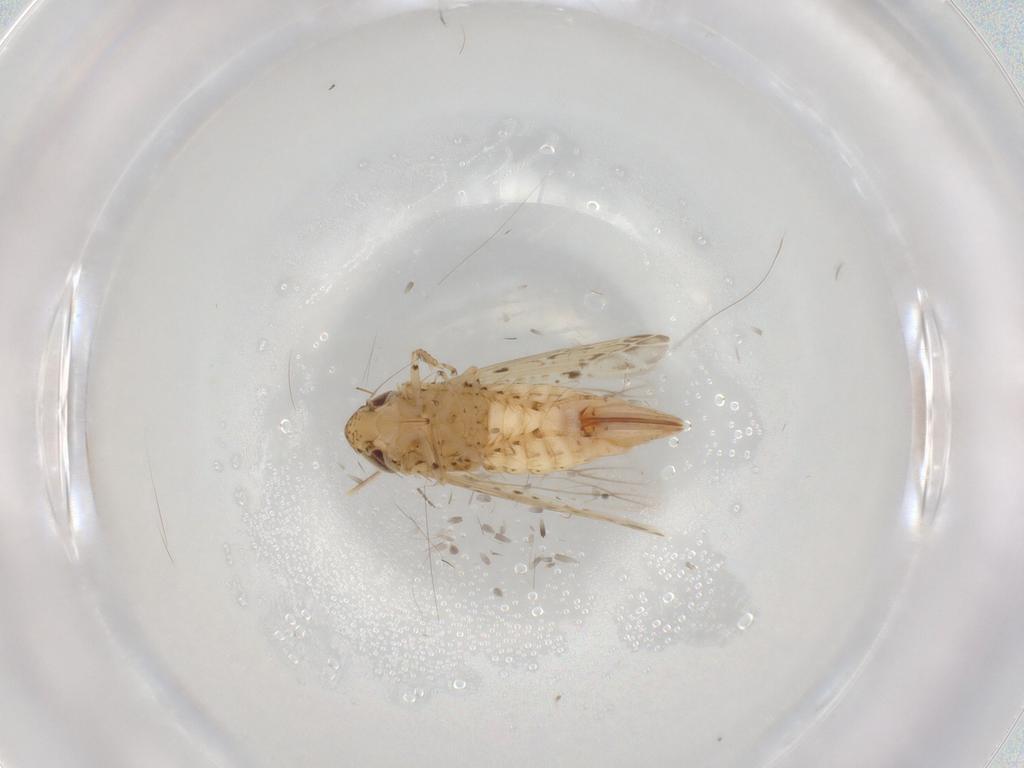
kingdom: Animalia
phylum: Arthropoda
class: Insecta
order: Hemiptera
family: Cicadellidae
